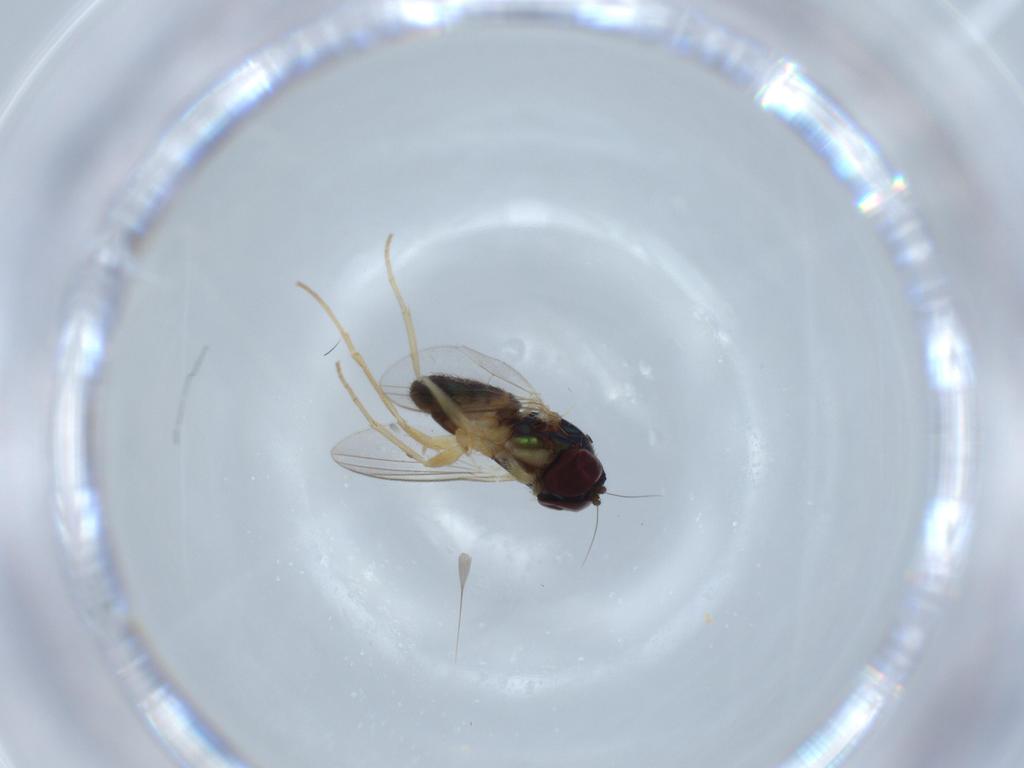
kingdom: Animalia
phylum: Arthropoda
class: Insecta
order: Diptera
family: Dolichopodidae
